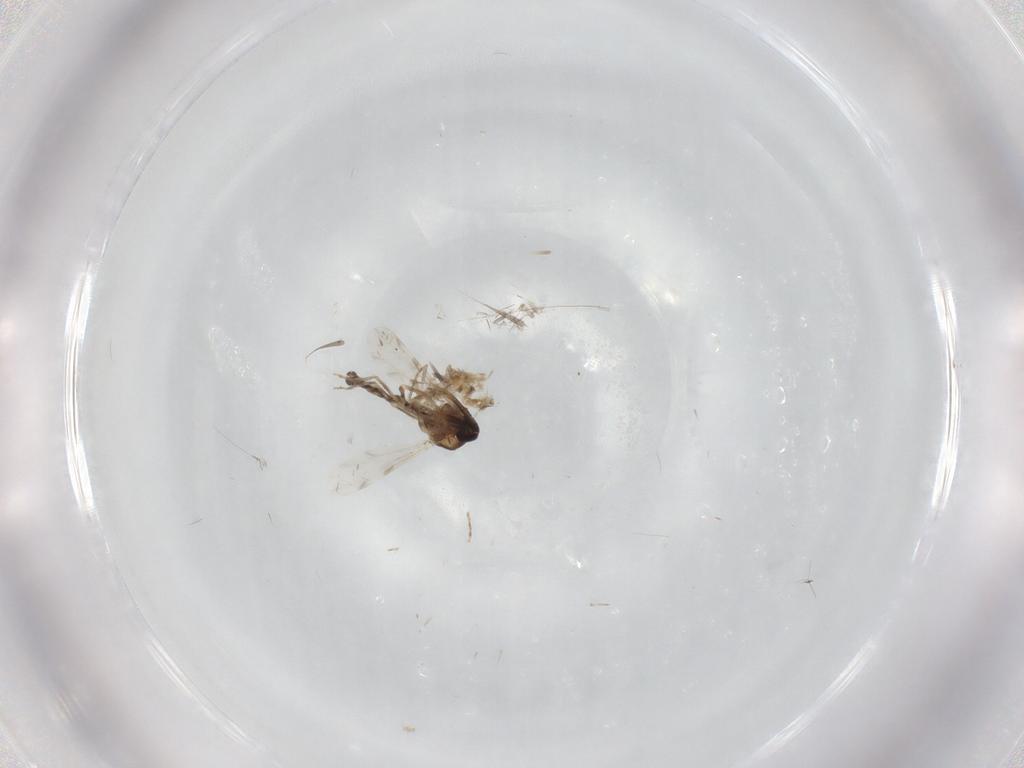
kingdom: Animalia
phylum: Arthropoda
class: Insecta
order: Diptera
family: Ceratopogonidae
